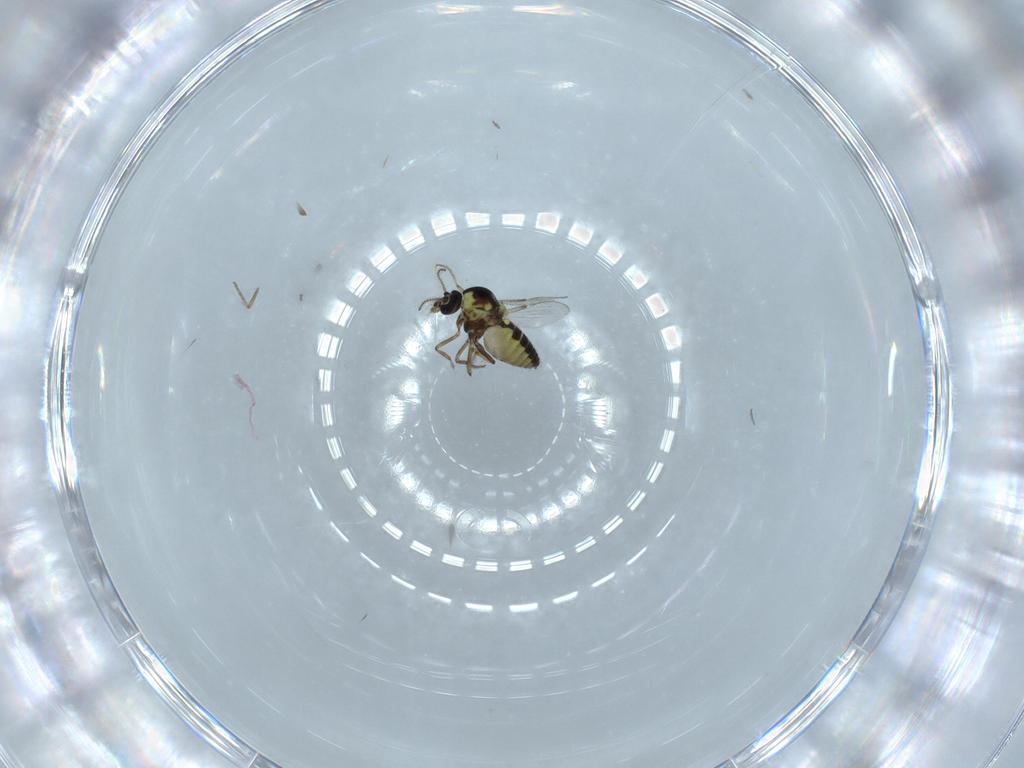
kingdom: Animalia
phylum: Arthropoda
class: Insecta
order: Diptera
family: Ceratopogonidae
